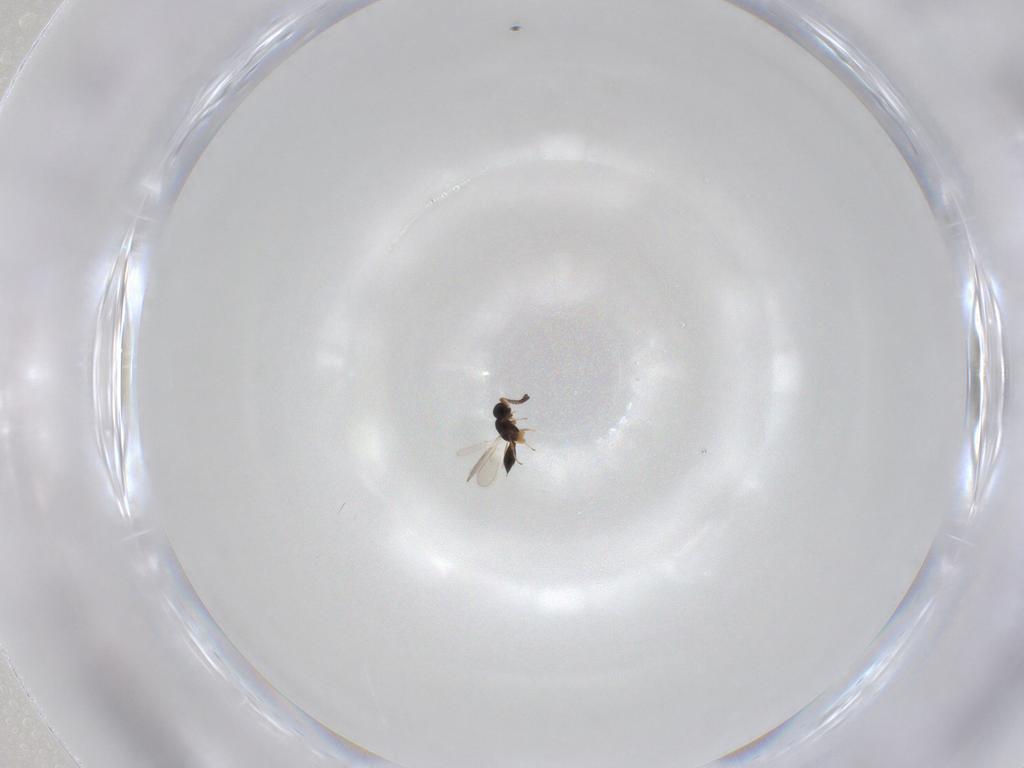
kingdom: Animalia
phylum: Arthropoda
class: Insecta
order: Hymenoptera
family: Scelionidae
